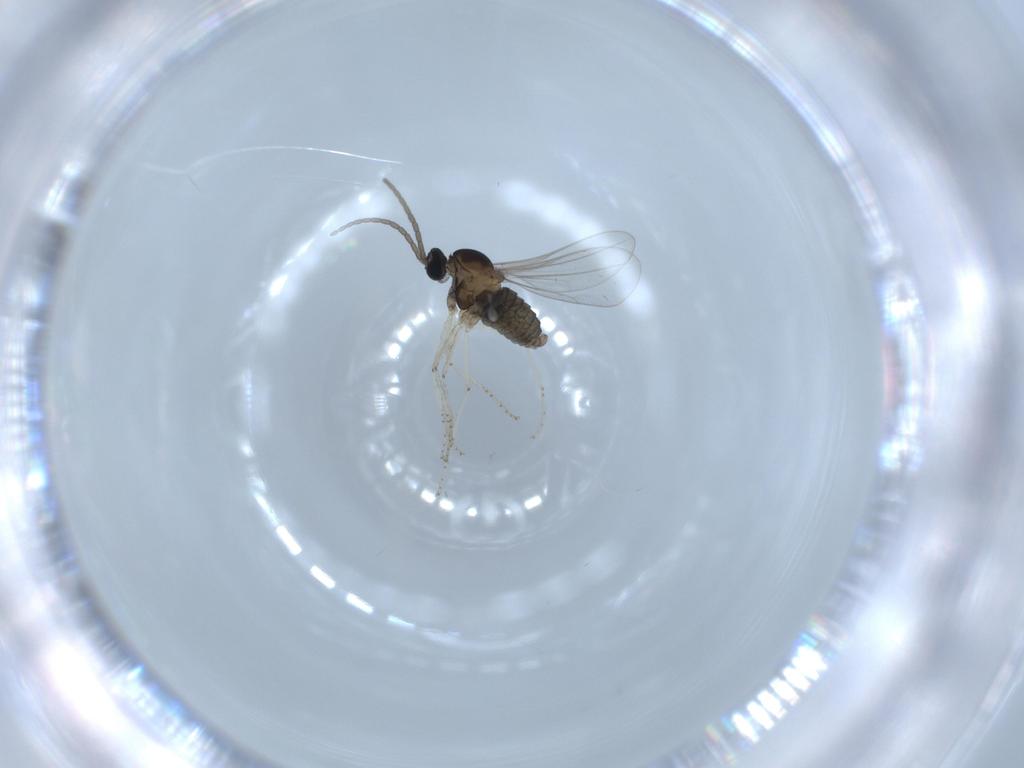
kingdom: Animalia
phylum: Arthropoda
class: Insecta
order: Diptera
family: Cecidomyiidae
